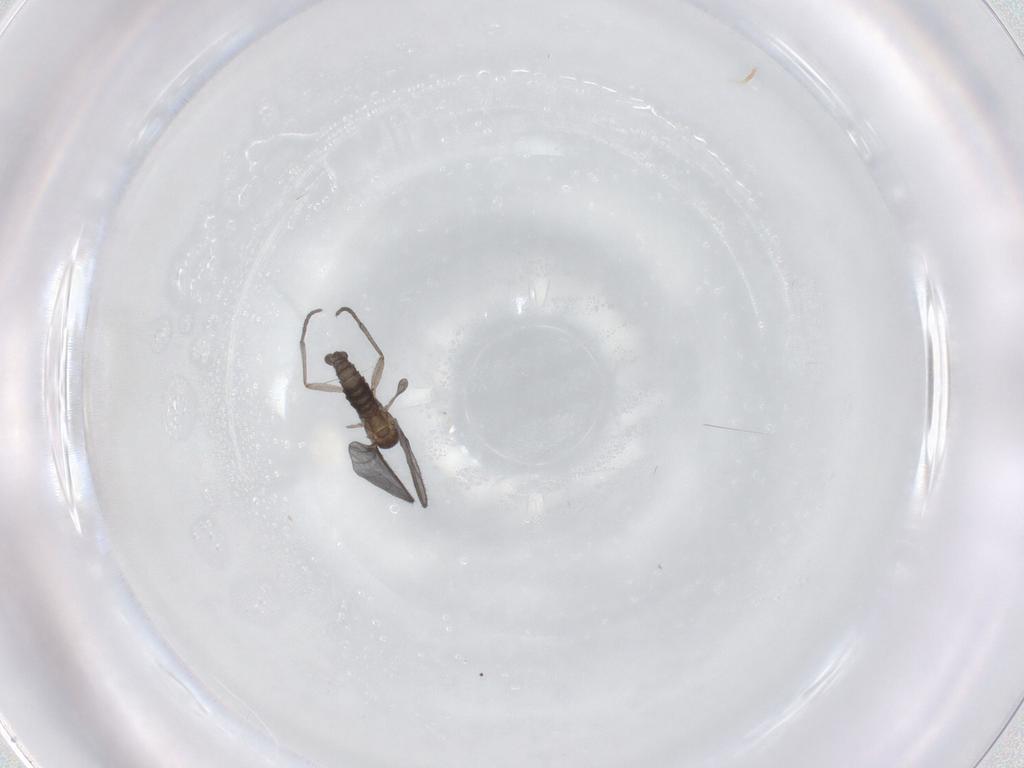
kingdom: Animalia
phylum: Arthropoda
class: Insecta
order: Diptera
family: Sciaridae
